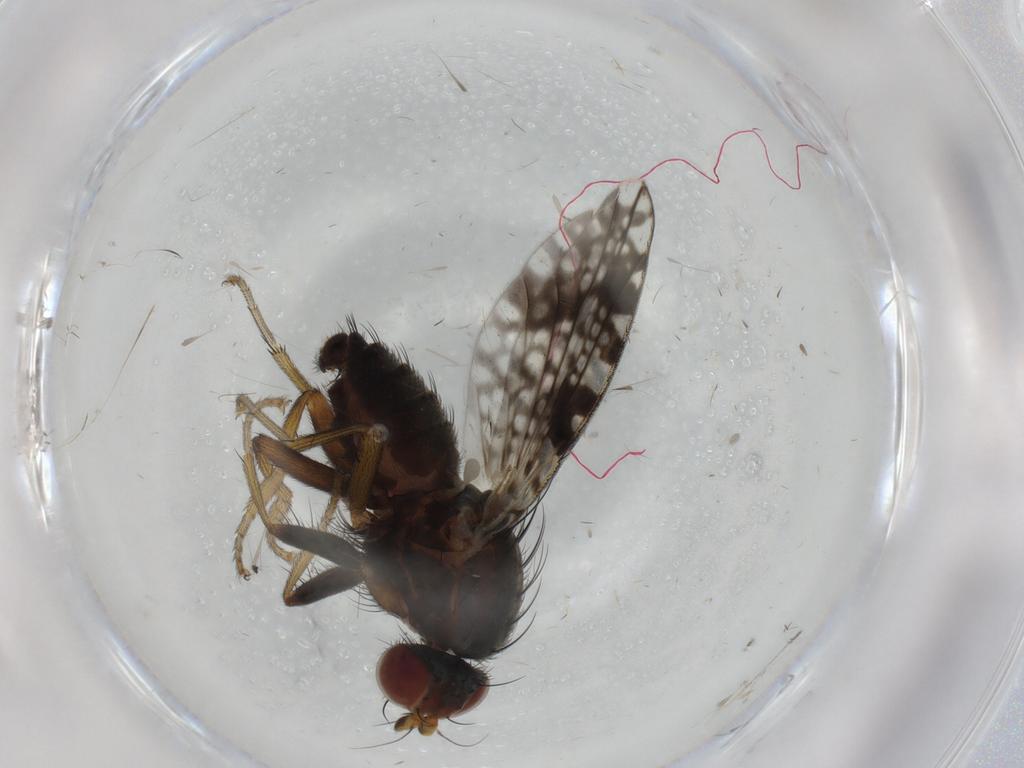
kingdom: Animalia
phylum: Arthropoda
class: Insecta
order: Diptera
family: Tephritidae
